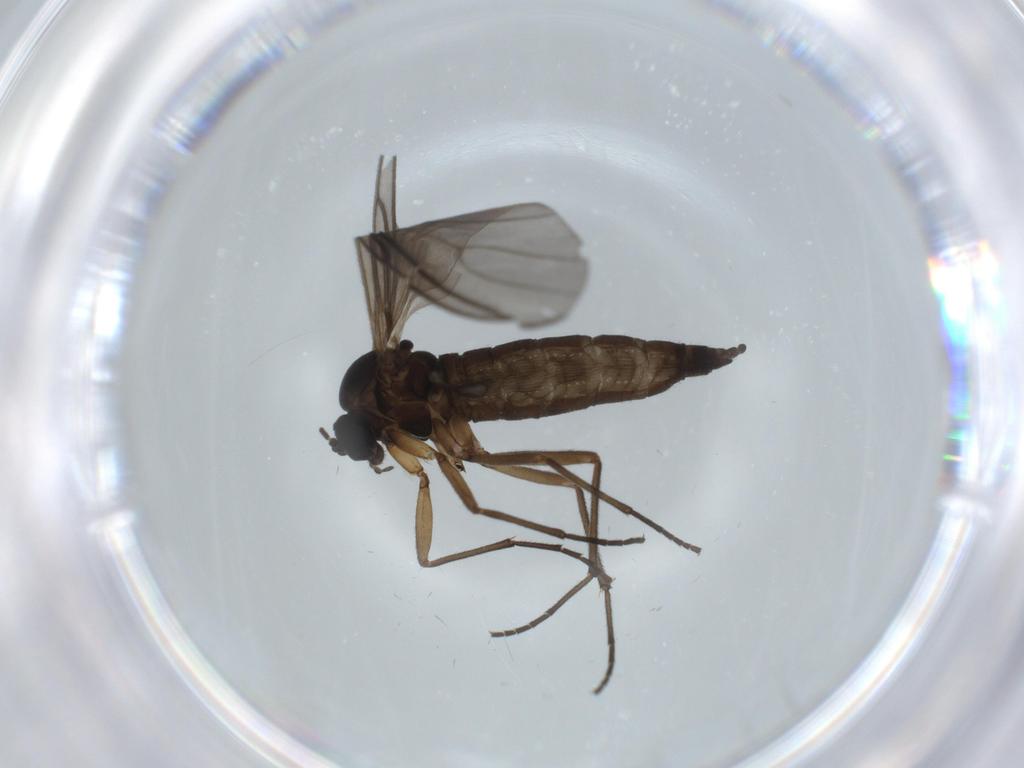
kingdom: Animalia
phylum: Arthropoda
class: Insecta
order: Diptera
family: Sciaridae
